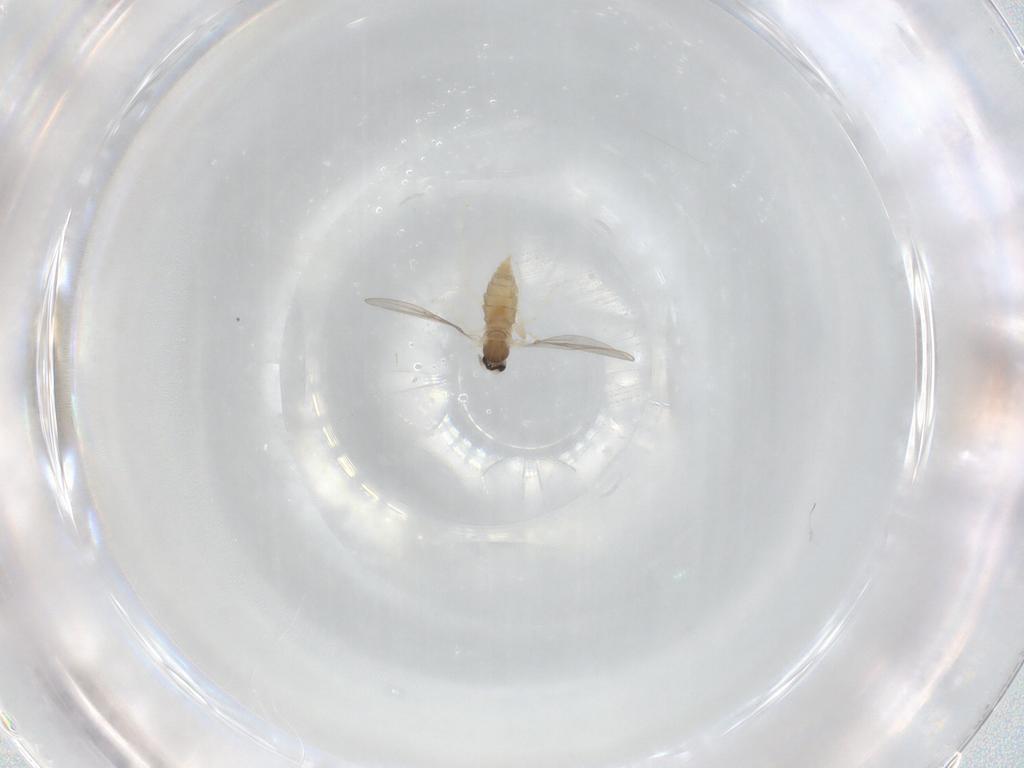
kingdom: Animalia
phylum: Arthropoda
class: Insecta
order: Diptera
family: Cecidomyiidae
